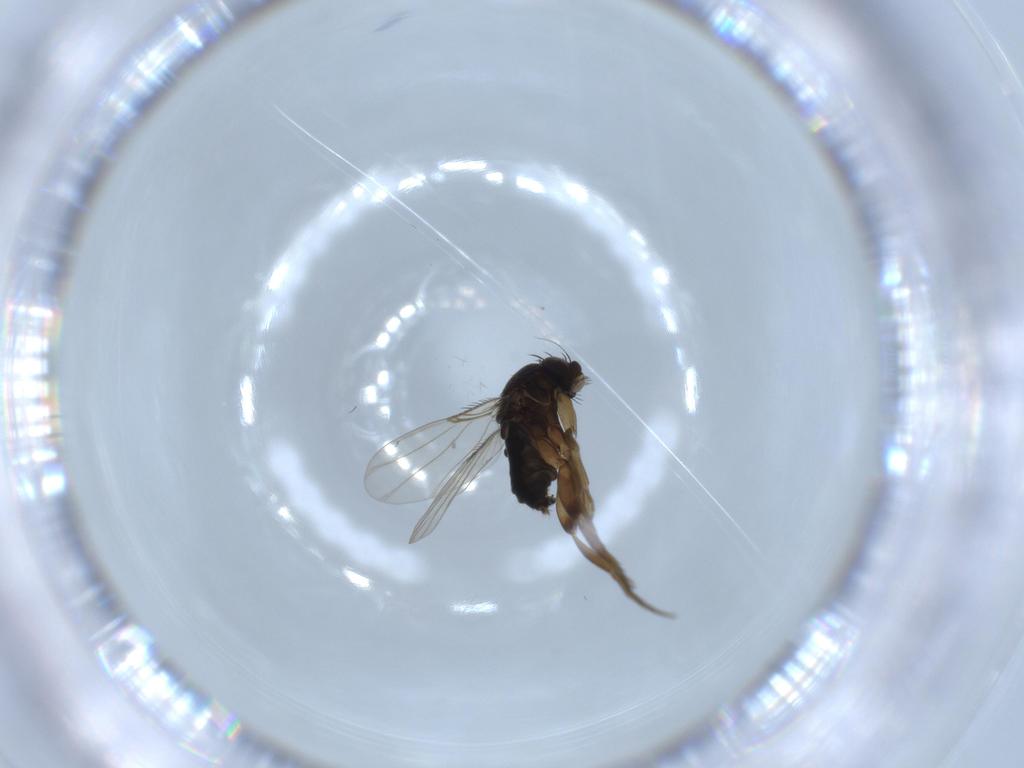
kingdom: Animalia
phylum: Arthropoda
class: Insecta
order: Diptera
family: Phoridae
